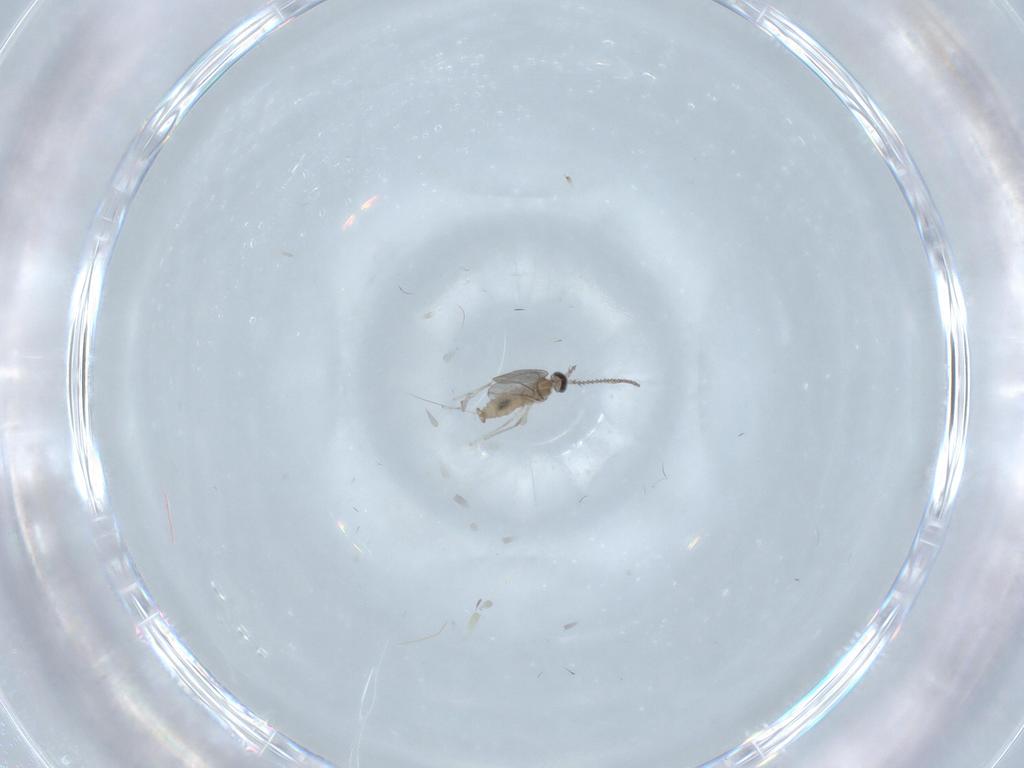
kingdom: Animalia
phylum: Arthropoda
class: Insecta
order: Diptera
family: Cecidomyiidae
